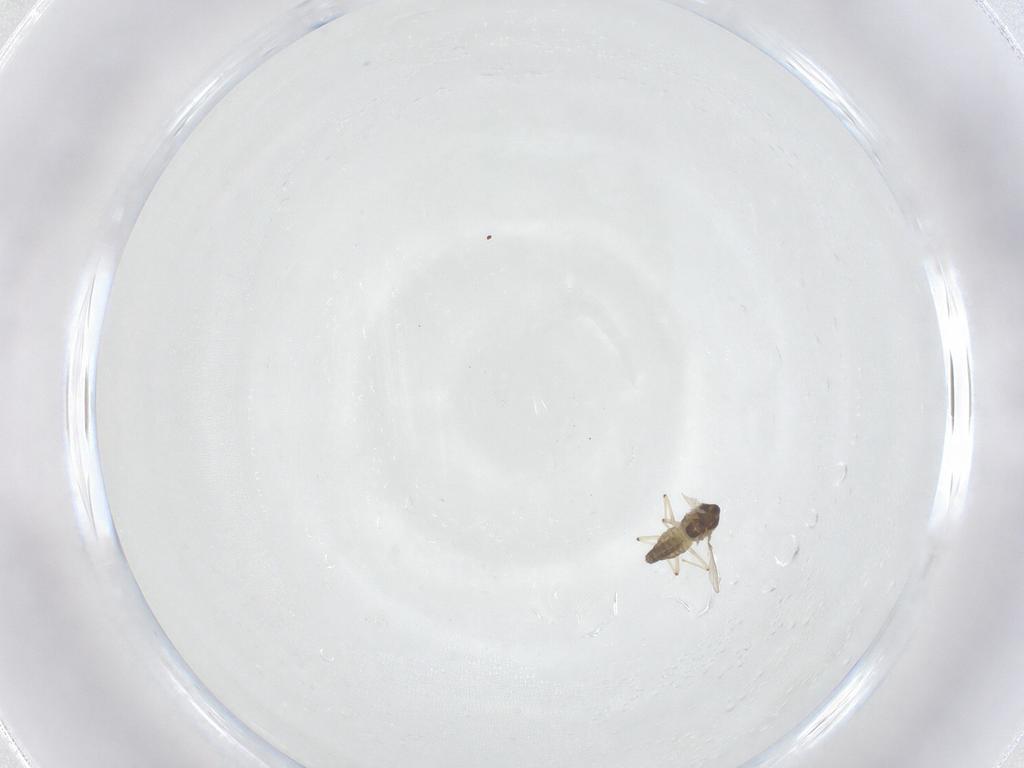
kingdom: Animalia
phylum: Arthropoda
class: Insecta
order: Diptera
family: Chironomidae
